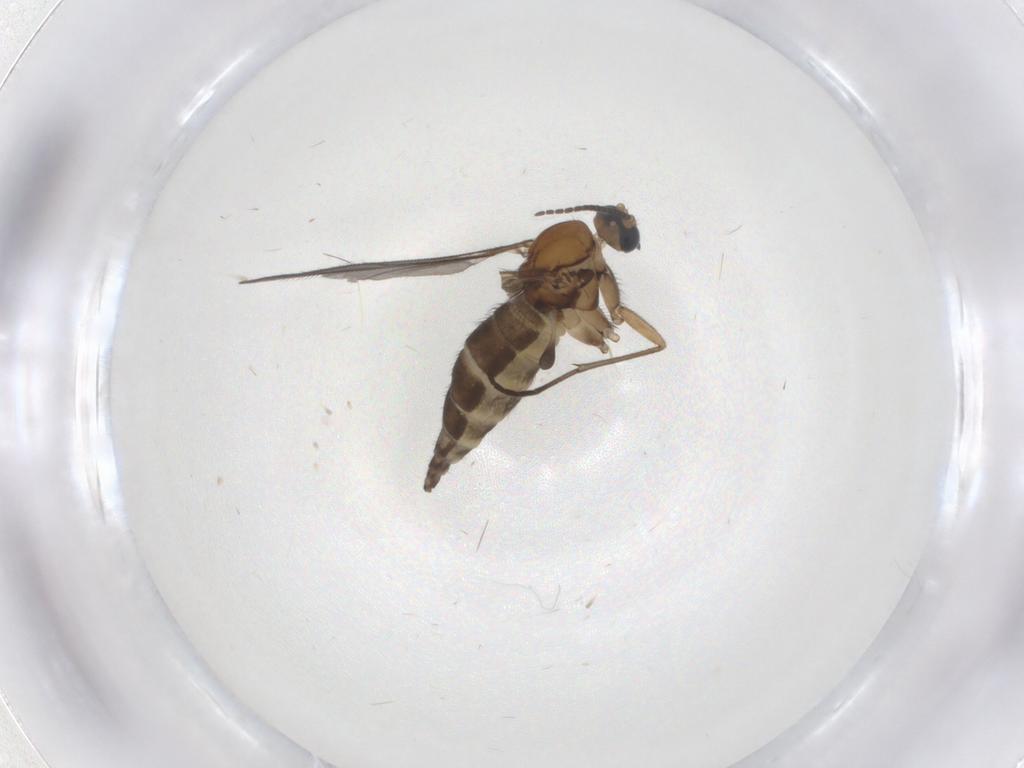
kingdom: Animalia
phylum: Arthropoda
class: Insecta
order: Diptera
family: Sciaridae
